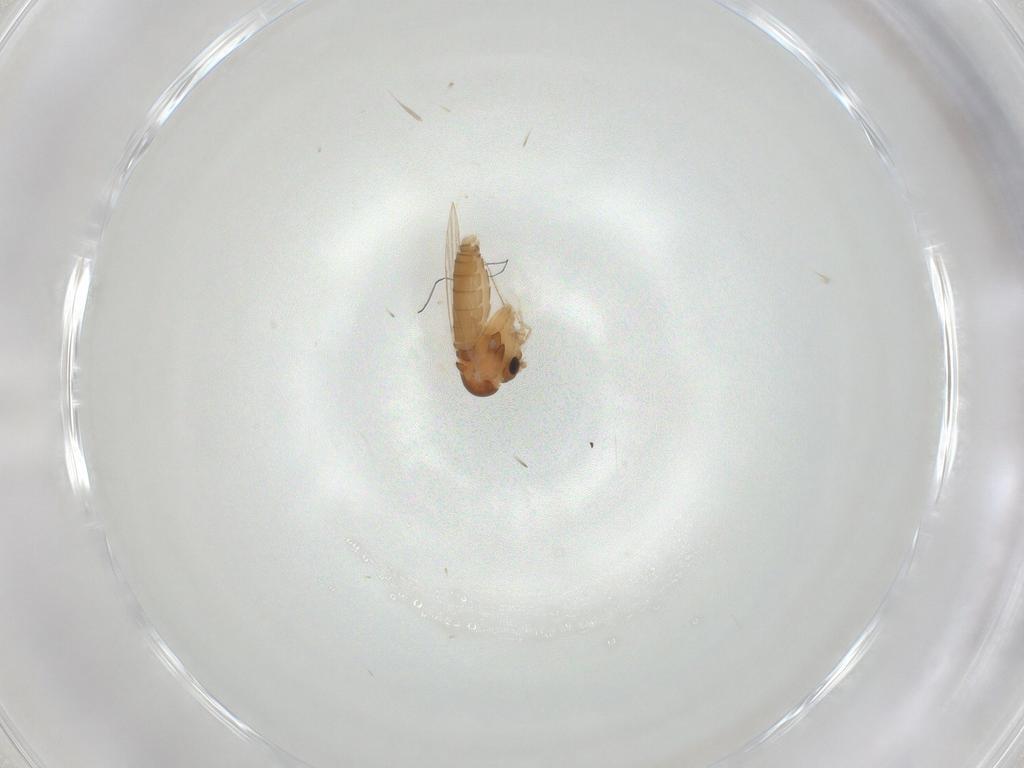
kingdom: Animalia
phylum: Arthropoda
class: Insecta
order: Diptera
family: Psychodidae
